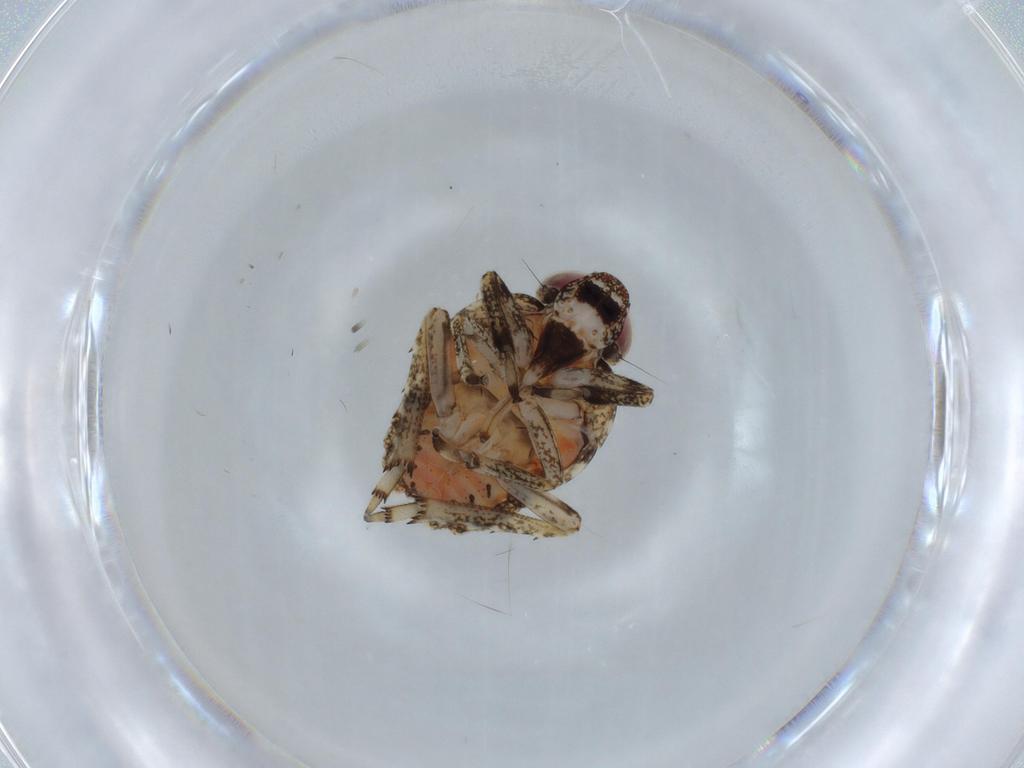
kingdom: Animalia
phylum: Arthropoda
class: Insecta
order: Hemiptera
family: Issidae
